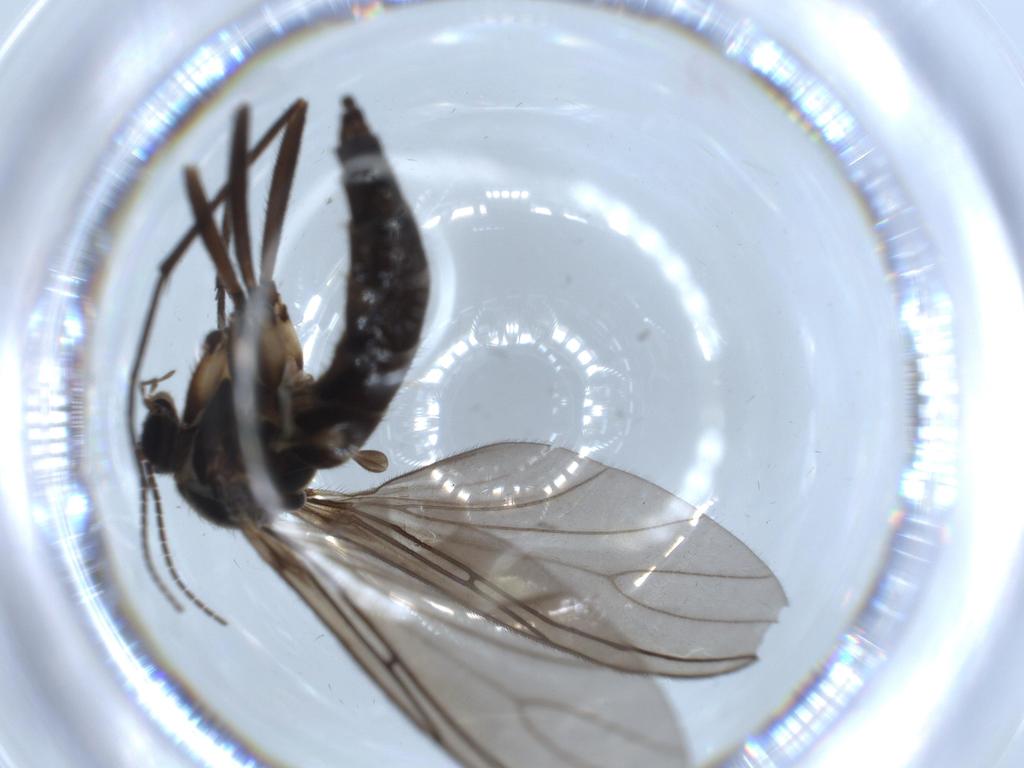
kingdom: Animalia
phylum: Arthropoda
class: Insecta
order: Diptera
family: Sciaridae
